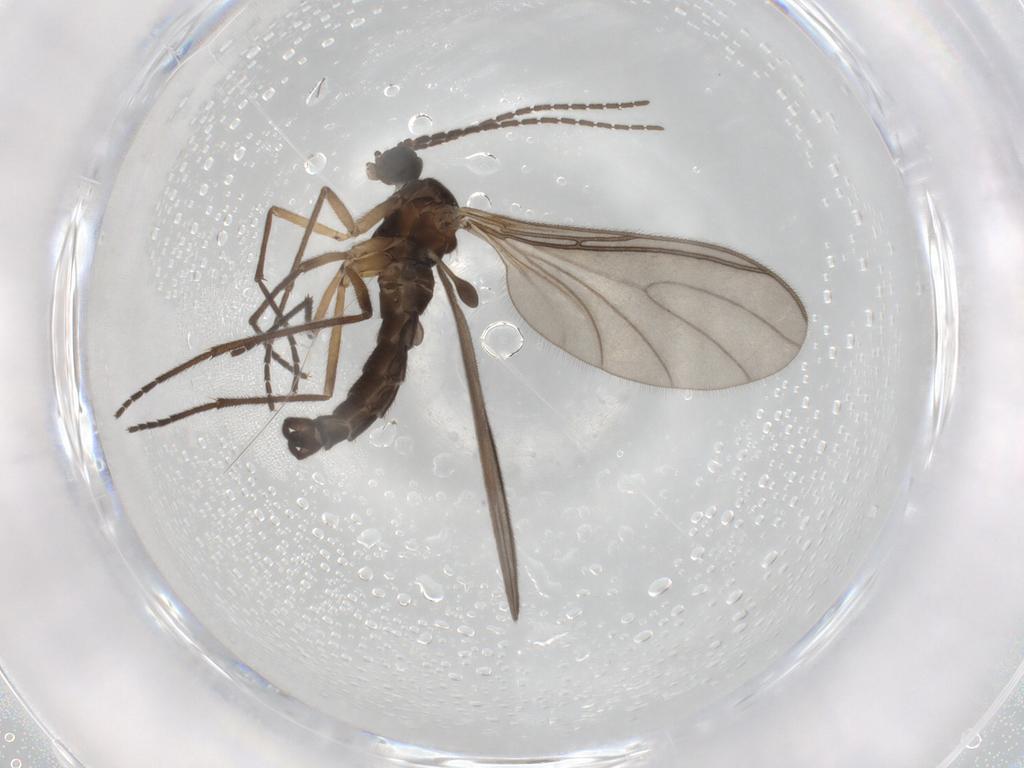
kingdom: Animalia
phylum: Arthropoda
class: Insecta
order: Diptera
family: Sciaridae
